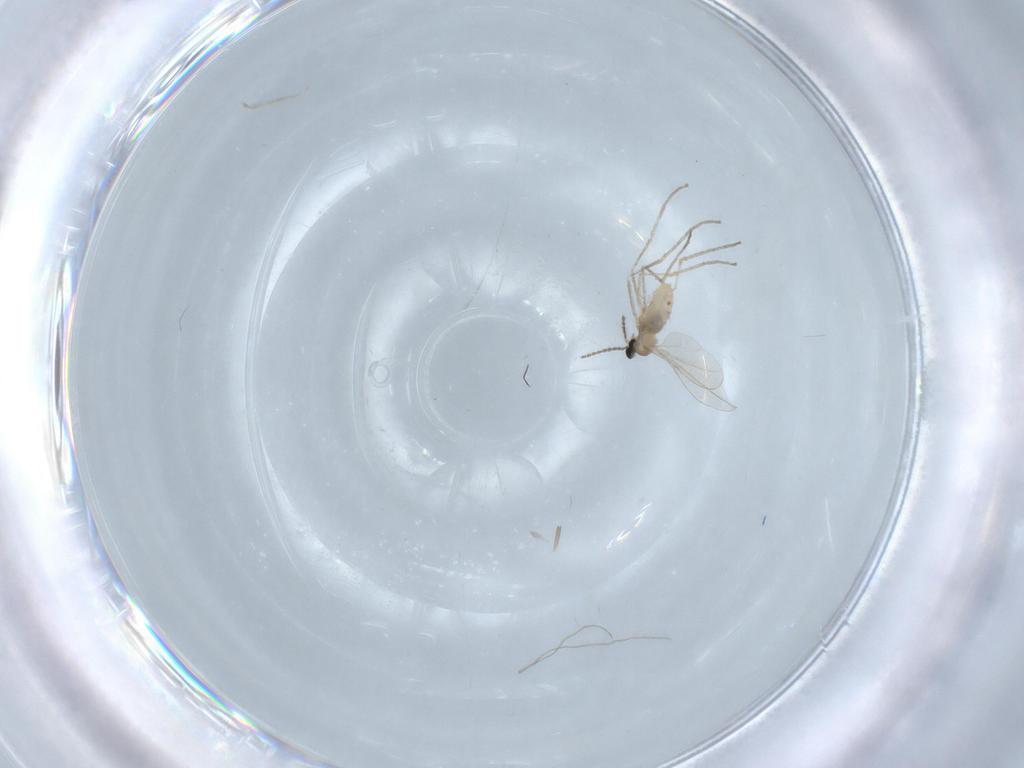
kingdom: Animalia
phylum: Arthropoda
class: Insecta
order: Diptera
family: Cecidomyiidae
